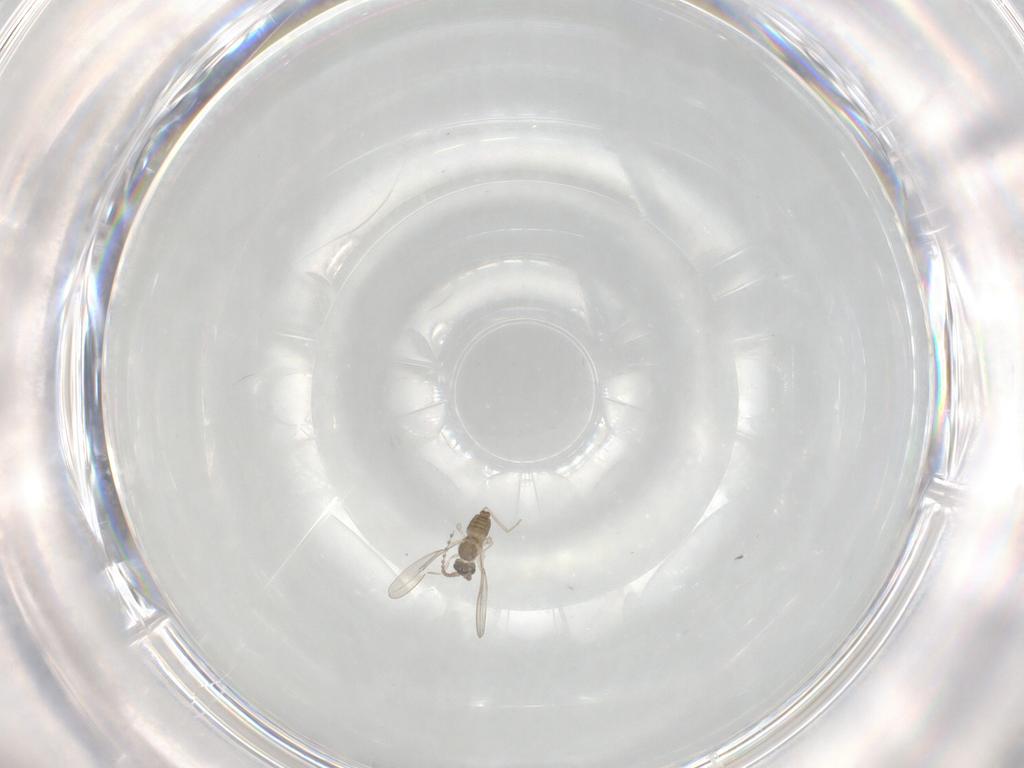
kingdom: Animalia
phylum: Arthropoda
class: Insecta
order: Diptera
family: Cecidomyiidae
